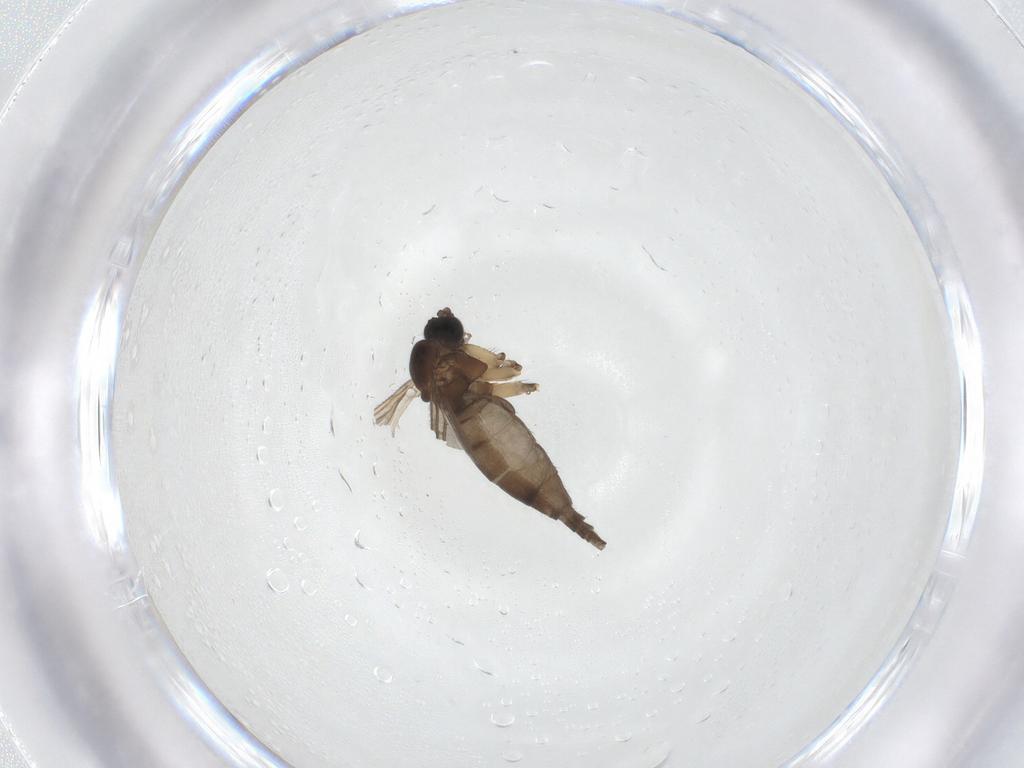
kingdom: Animalia
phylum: Arthropoda
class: Insecta
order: Diptera
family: Sciaridae
